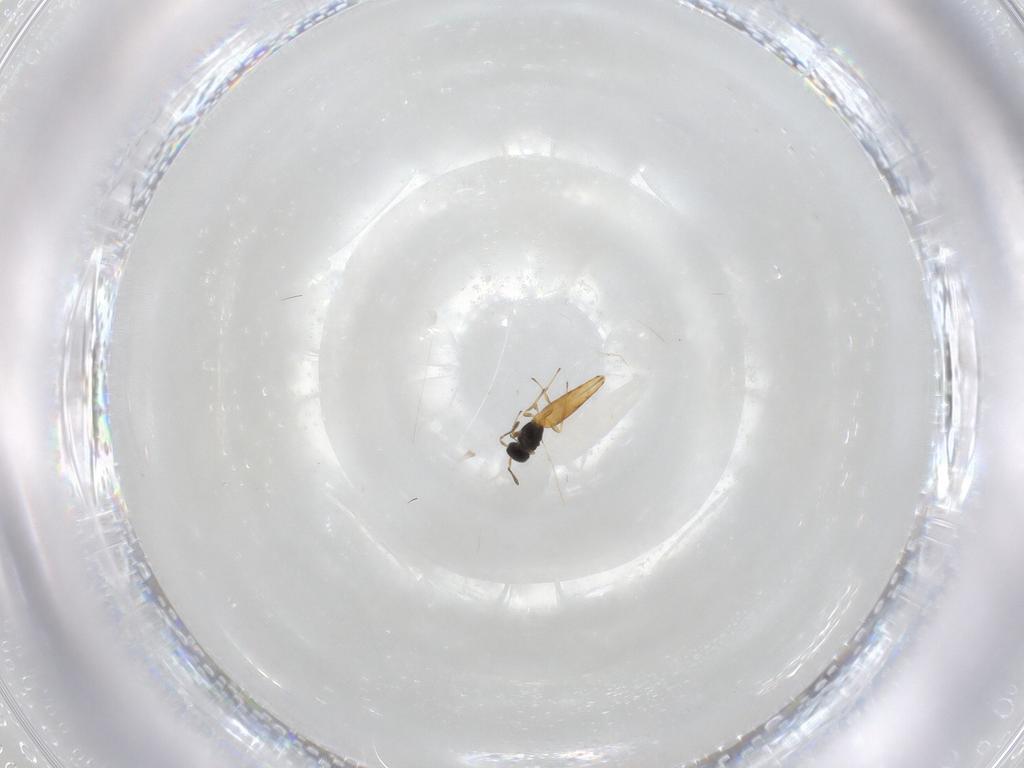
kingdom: Animalia
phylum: Arthropoda
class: Insecta
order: Hymenoptera
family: Scelionidae
